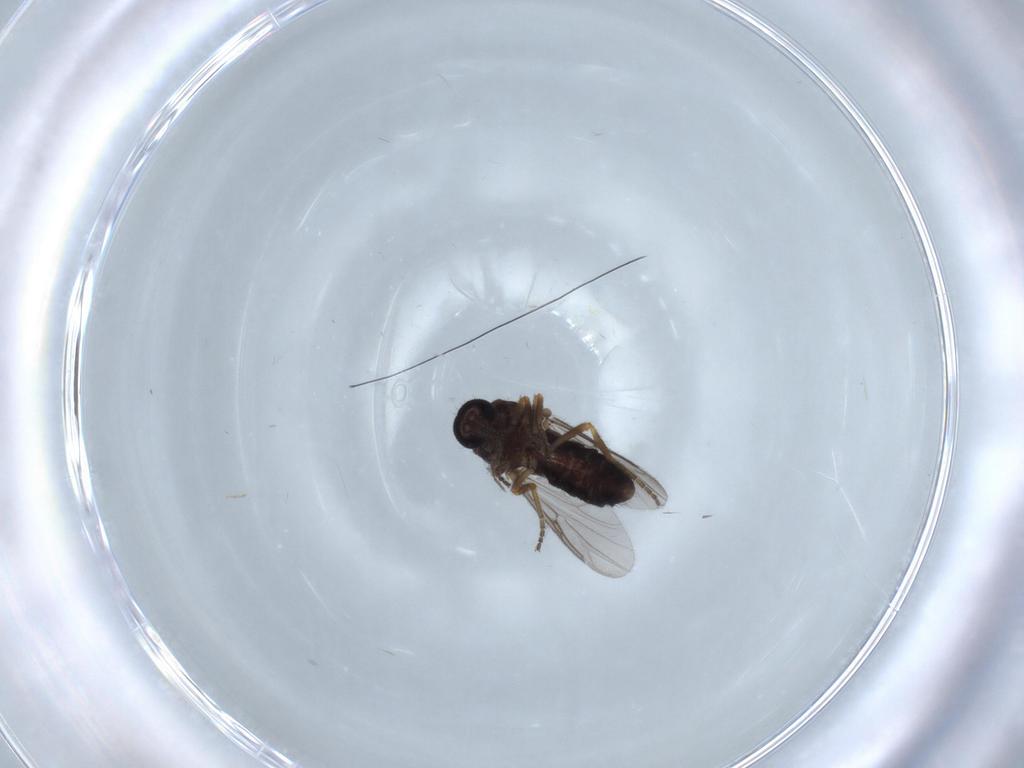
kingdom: Animalia
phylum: Arthropoda
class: Insecta
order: Diptera
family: Ceratopogonidae
